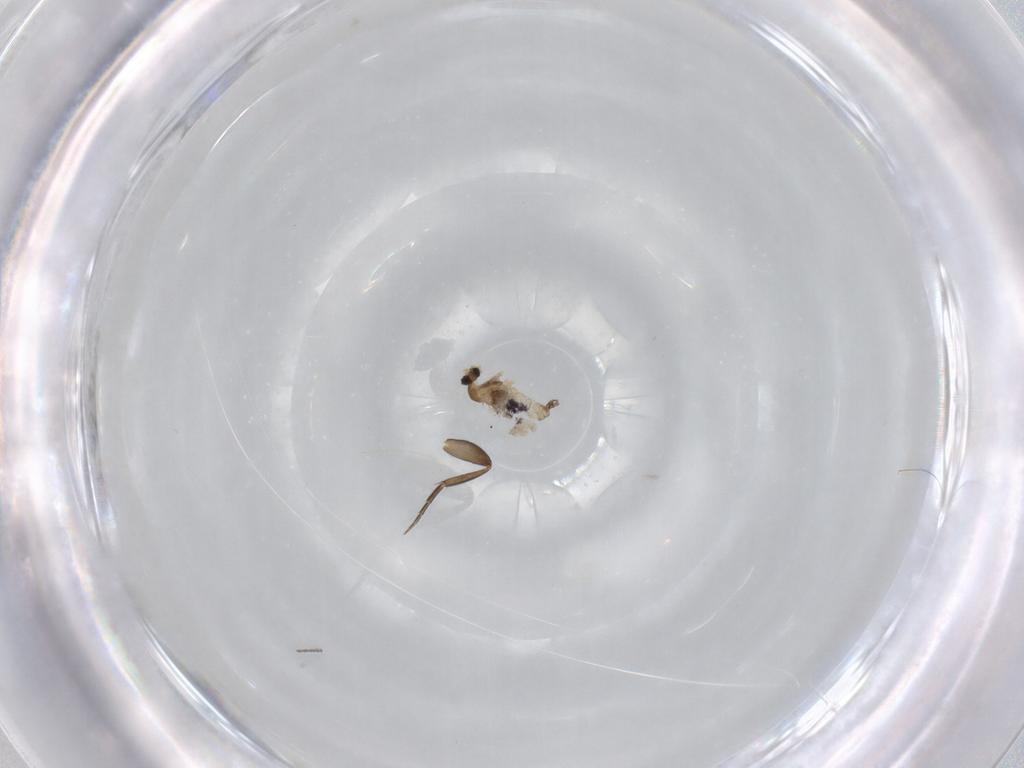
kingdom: Animalia
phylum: Arthropoda
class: Insecta
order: Diptera
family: Cecidomyiidae
